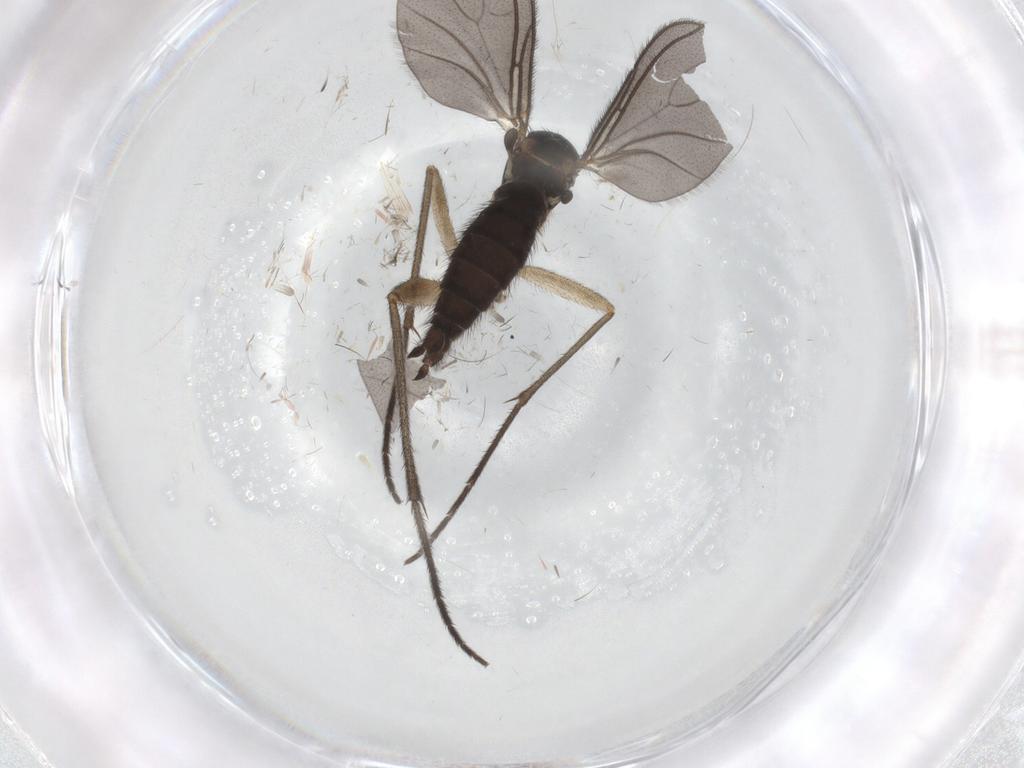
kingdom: Animalia
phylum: Arthropoda
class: Insecta
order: Diptera
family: Sciaridae
